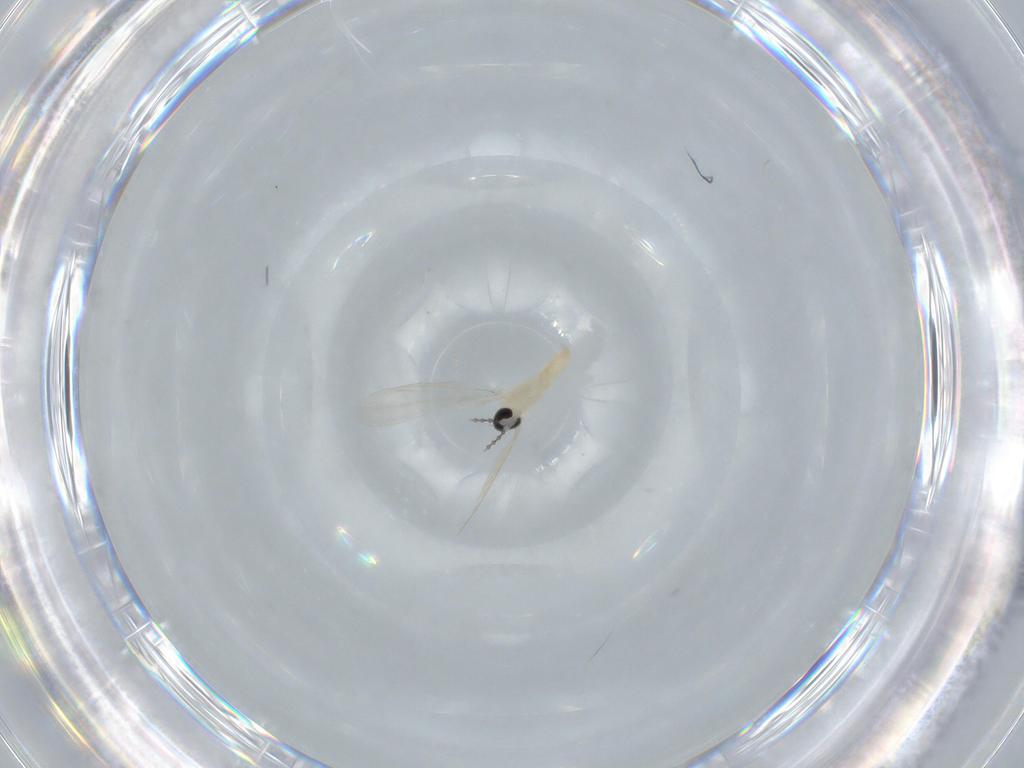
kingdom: Animalia
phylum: Arthropoda
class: Insecta
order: Diptera
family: Cecidomyiidae
